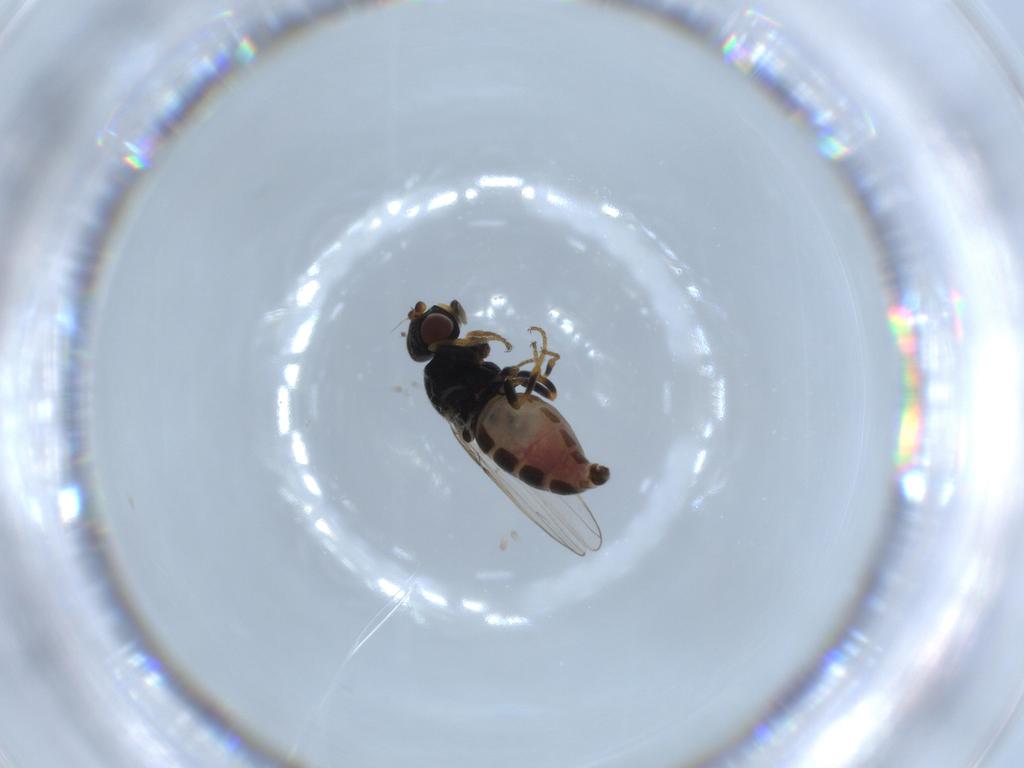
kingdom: Animalia
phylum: Arthropoda
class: Insecta
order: Diptera
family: Chloropidae
